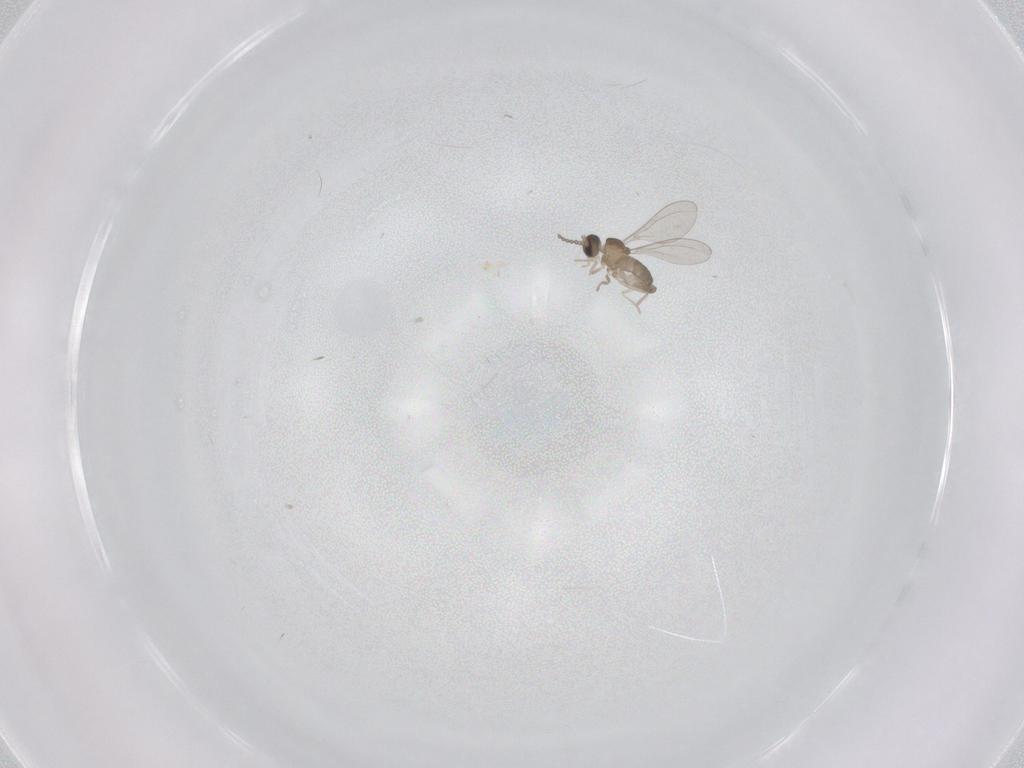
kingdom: Animalia
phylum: Arthropoda
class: Insecta
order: Diptera
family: Cecidomyiidae
